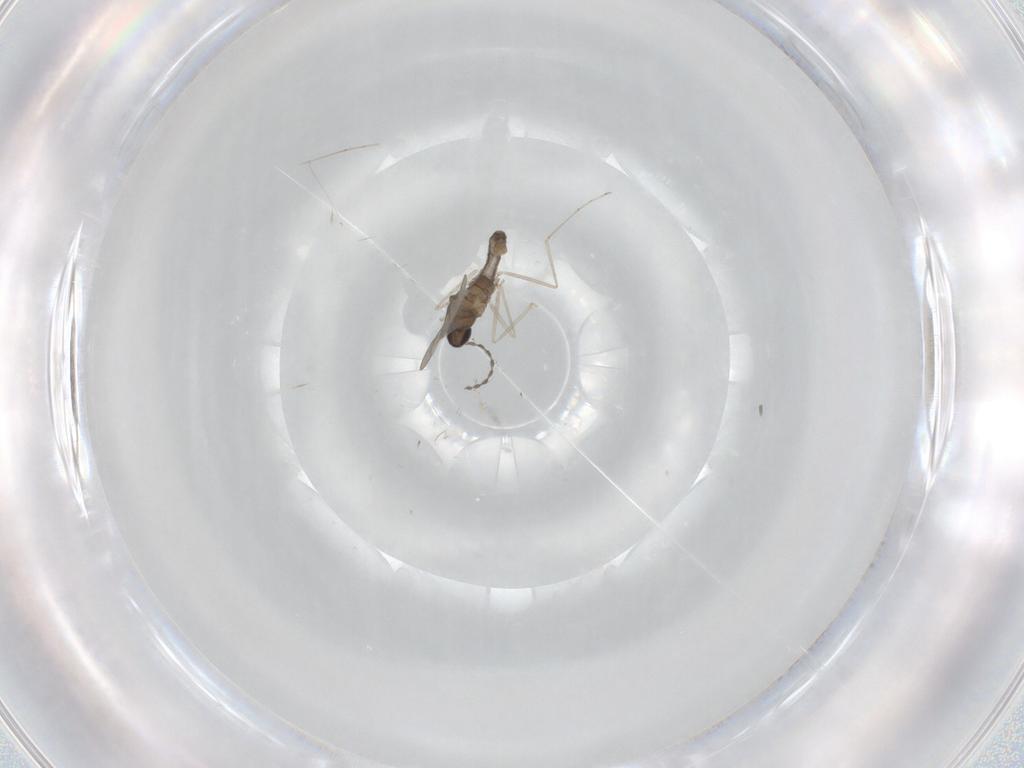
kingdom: Animalia
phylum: Arthropoda
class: Insecta
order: Diptera
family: Cecidomyiidae
